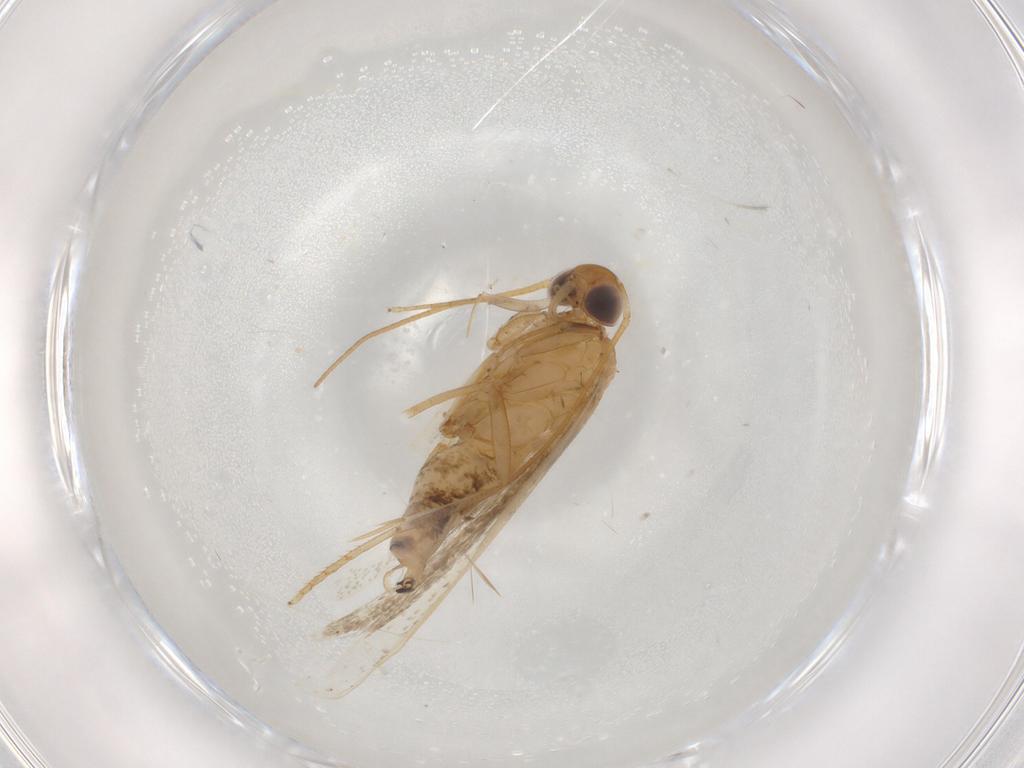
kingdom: Animalia
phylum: Arthropoda
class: Insecta
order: Lepidoptera
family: Gelechiidae
